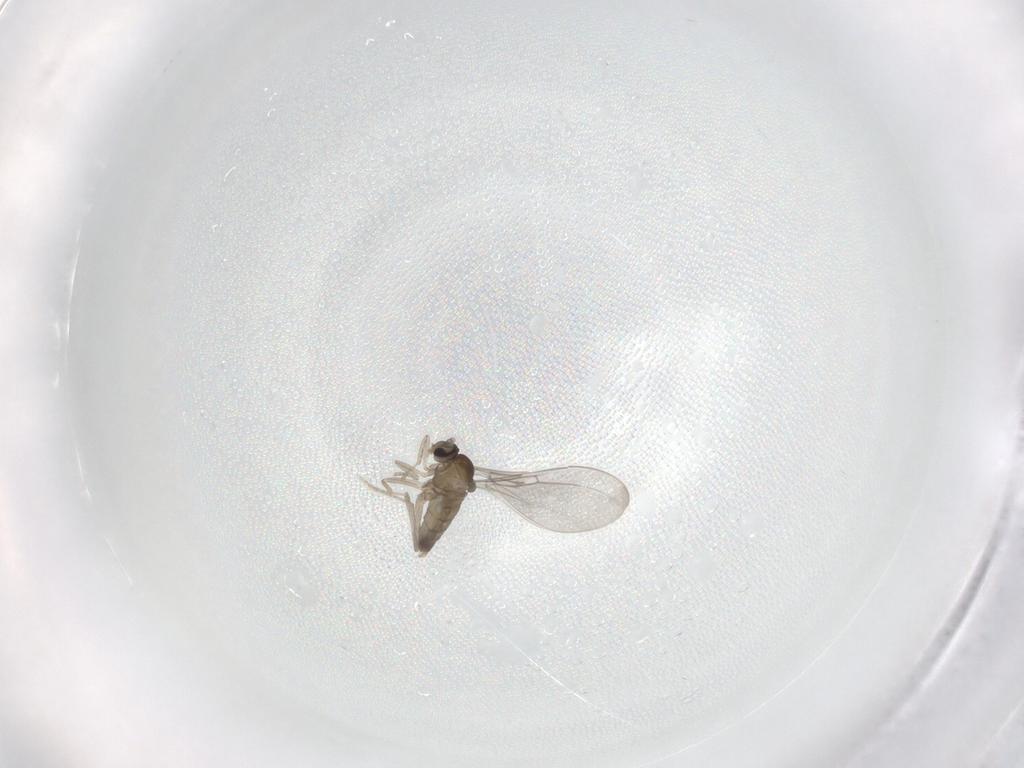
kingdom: Animalia
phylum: Arthropoda
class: Insecta
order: Diptera
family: Cecidomyiidae
